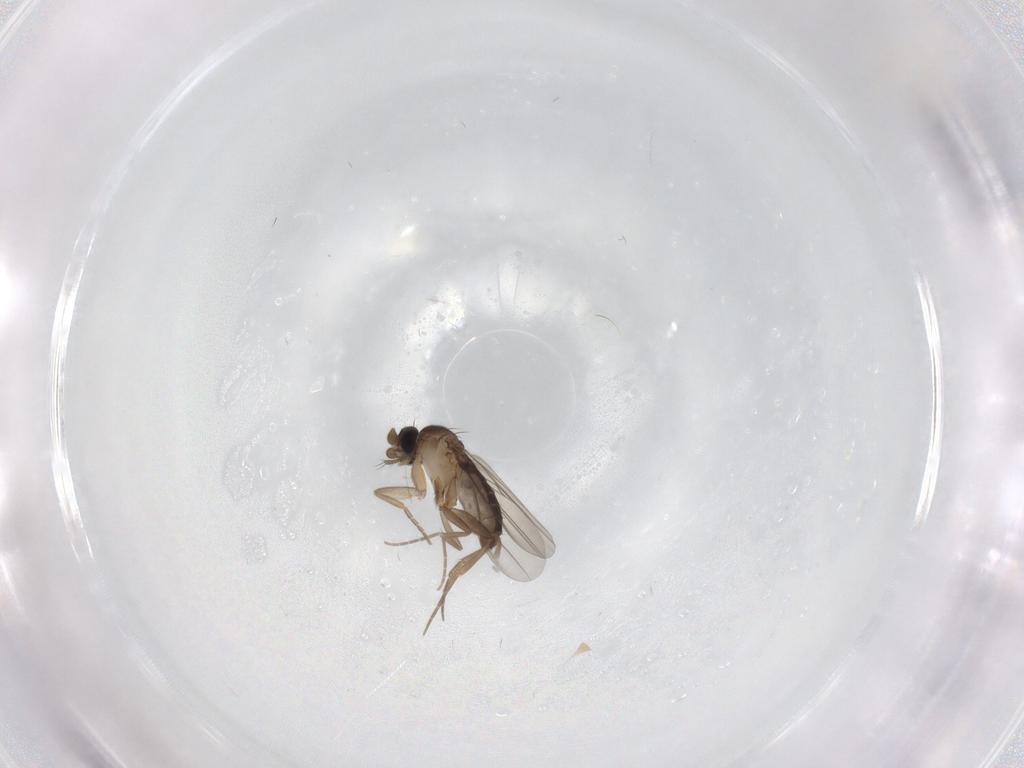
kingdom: Animalia
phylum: Arthropoda
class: Insecta
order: Diptera
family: Phoridae
